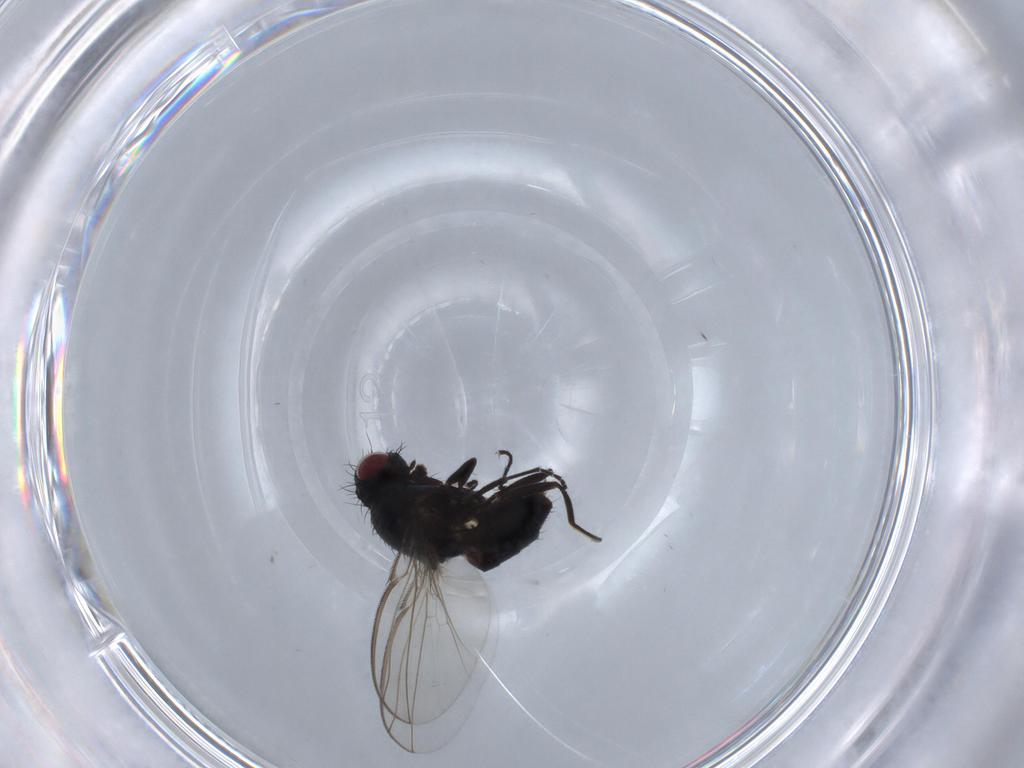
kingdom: Animalia
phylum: Arthropoda
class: Insecta
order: Diptera
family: Carnidae
